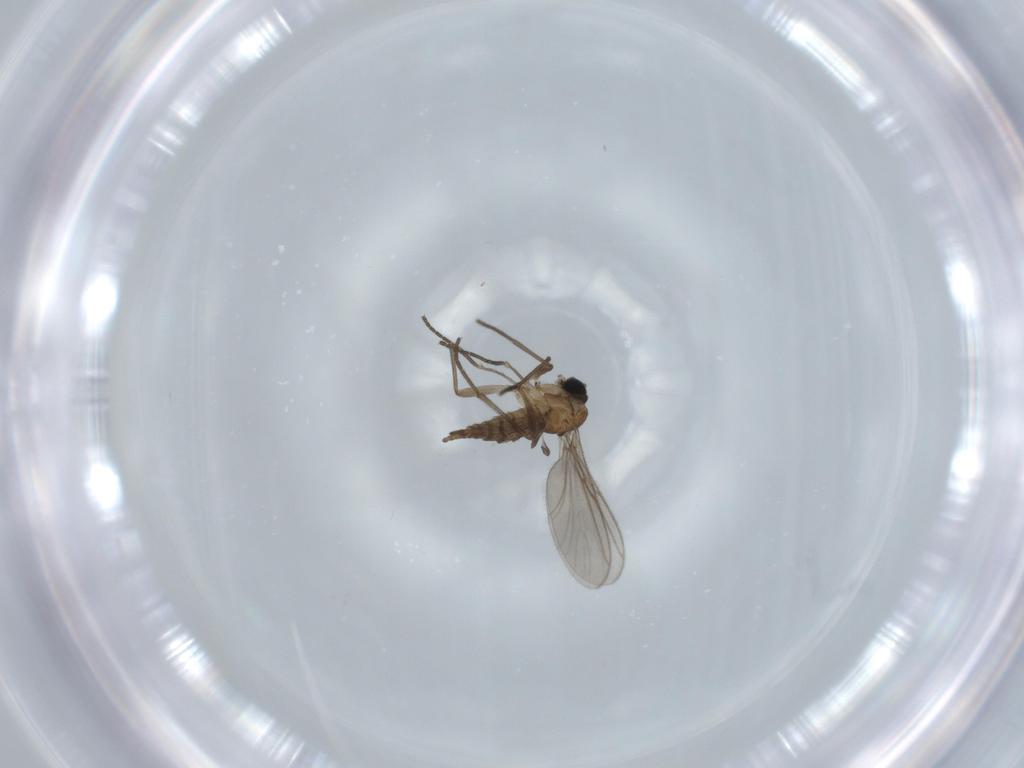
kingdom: Animalia
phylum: Arthropoda
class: Insecta
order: Diptera
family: Sciaridae
